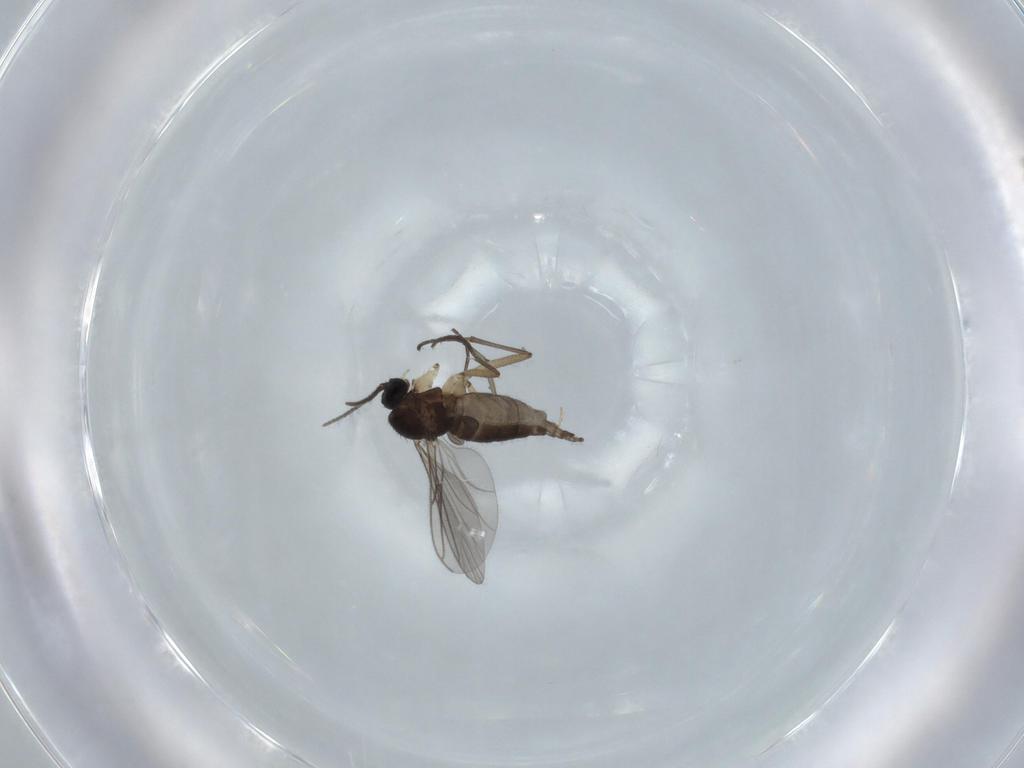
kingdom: Animalia
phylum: Arthropoda
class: Insecta
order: Diptera
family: Sciaridae
